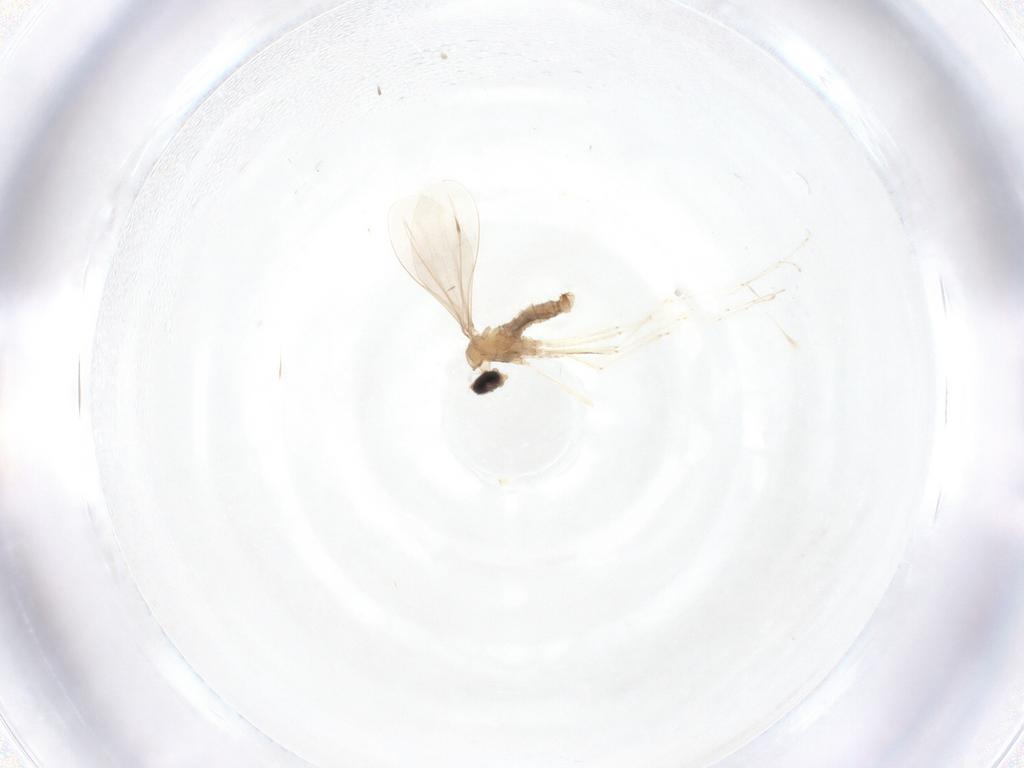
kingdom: Animalia
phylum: Arthropoda
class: Insecta
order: Diptera
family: Cecidomyiidae
